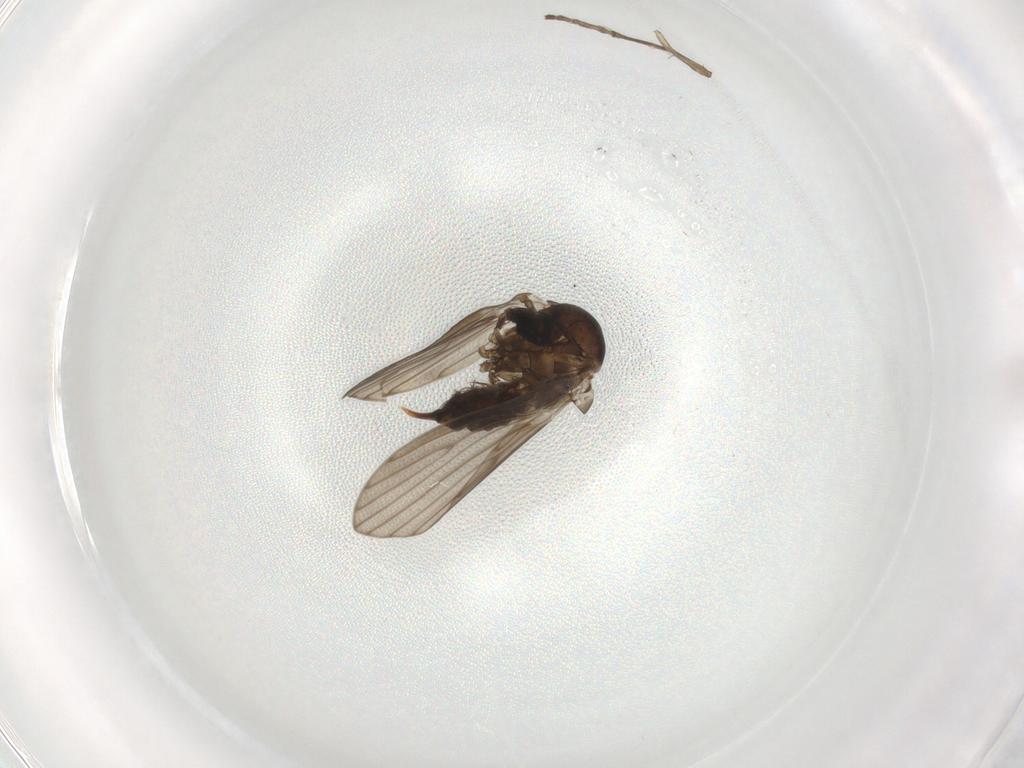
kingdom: Animalia
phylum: Arthropoda
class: Insecta
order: Diptera
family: Psychodidae
